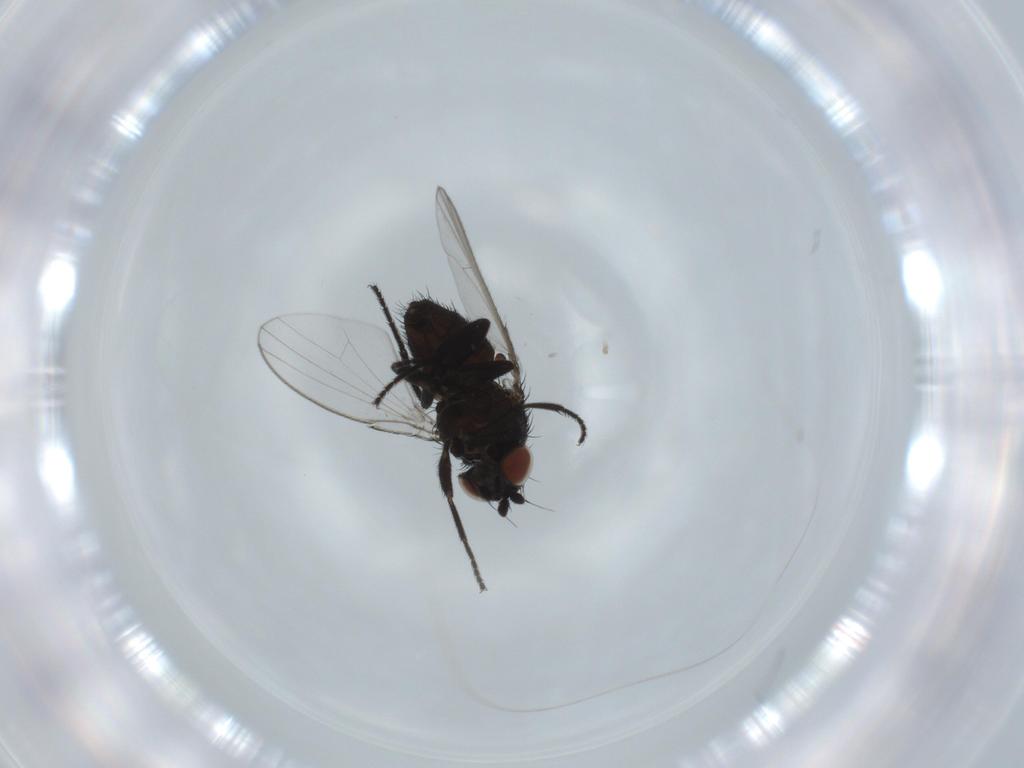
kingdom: Animalia
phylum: Arthropoda
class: Insecta
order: Diptera
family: Milichiidae
